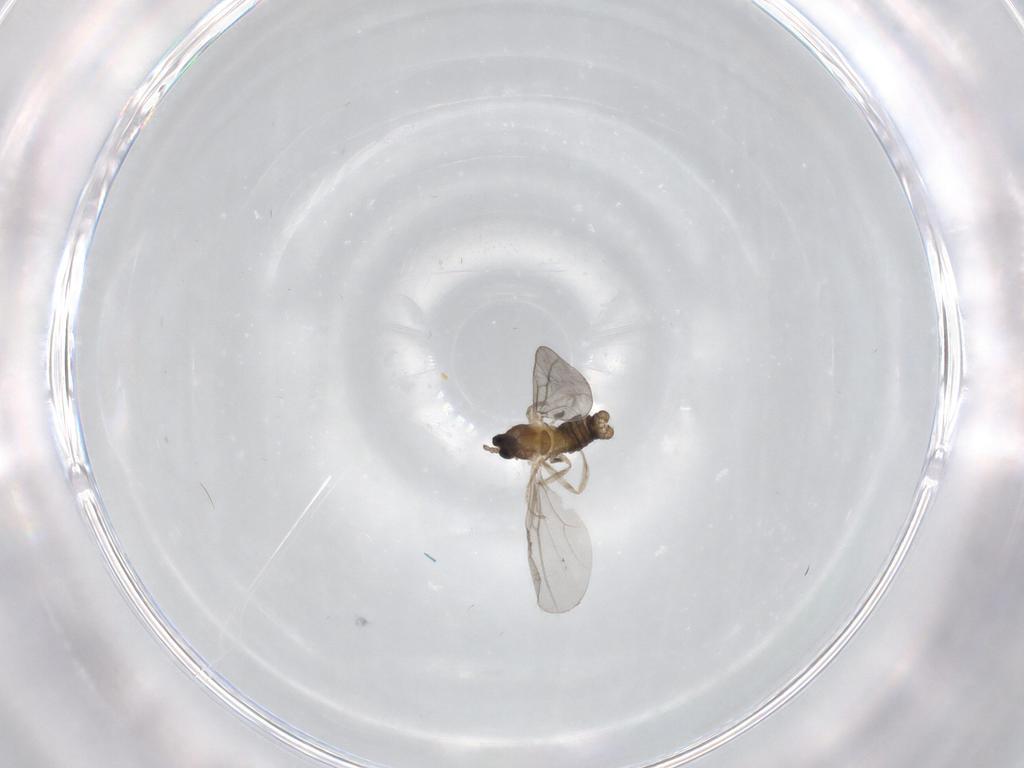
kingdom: Animalia
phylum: Arthropoda
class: Insecta
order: Diptera
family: Cecidomyiidae
